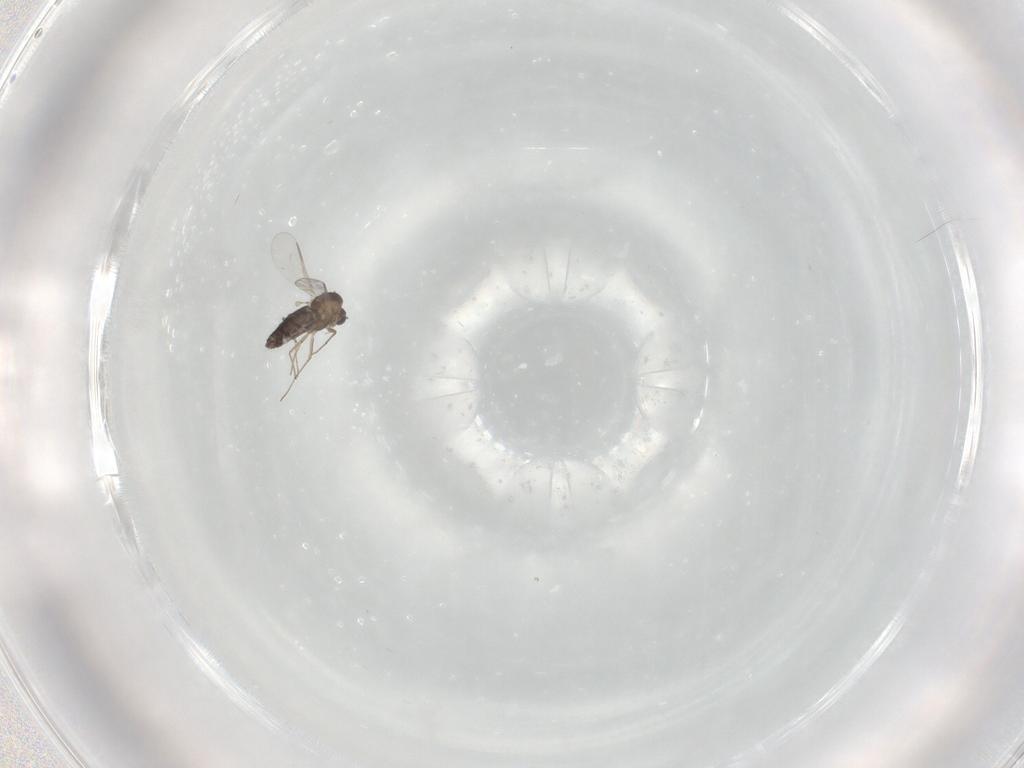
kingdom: Animalia
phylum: Arthropoda
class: Insecta
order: Diptera
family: Chironomidae
